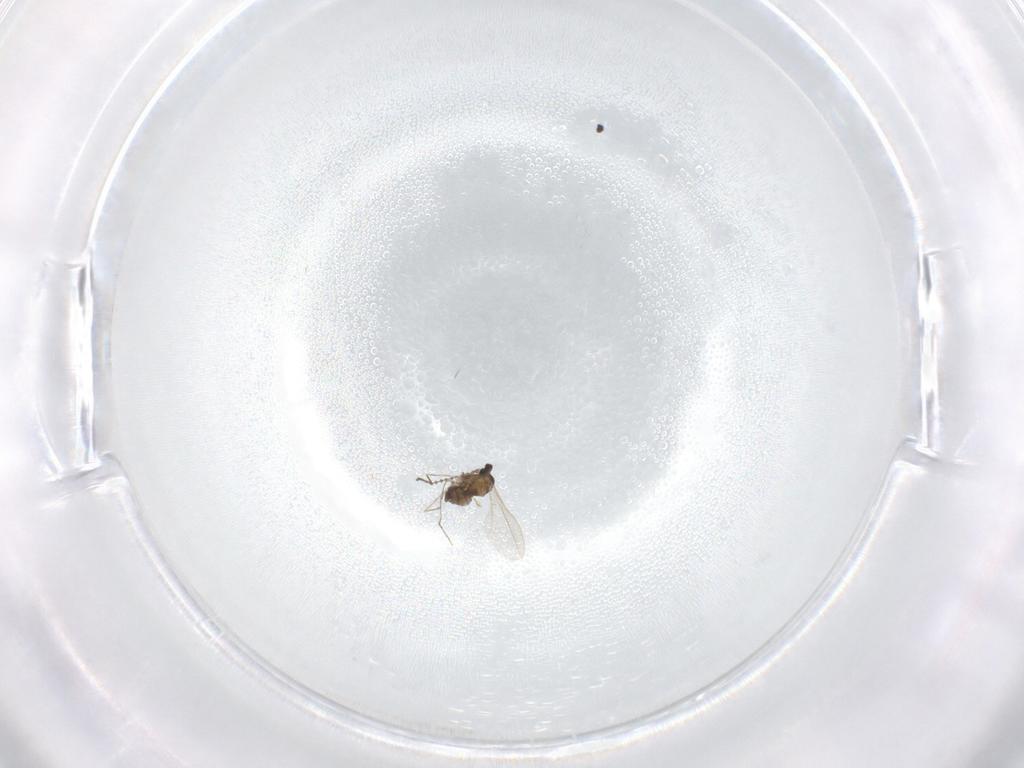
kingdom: Animalia
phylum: Arthropoda
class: Insecta
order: Diptera
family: Cecidomyiidae
